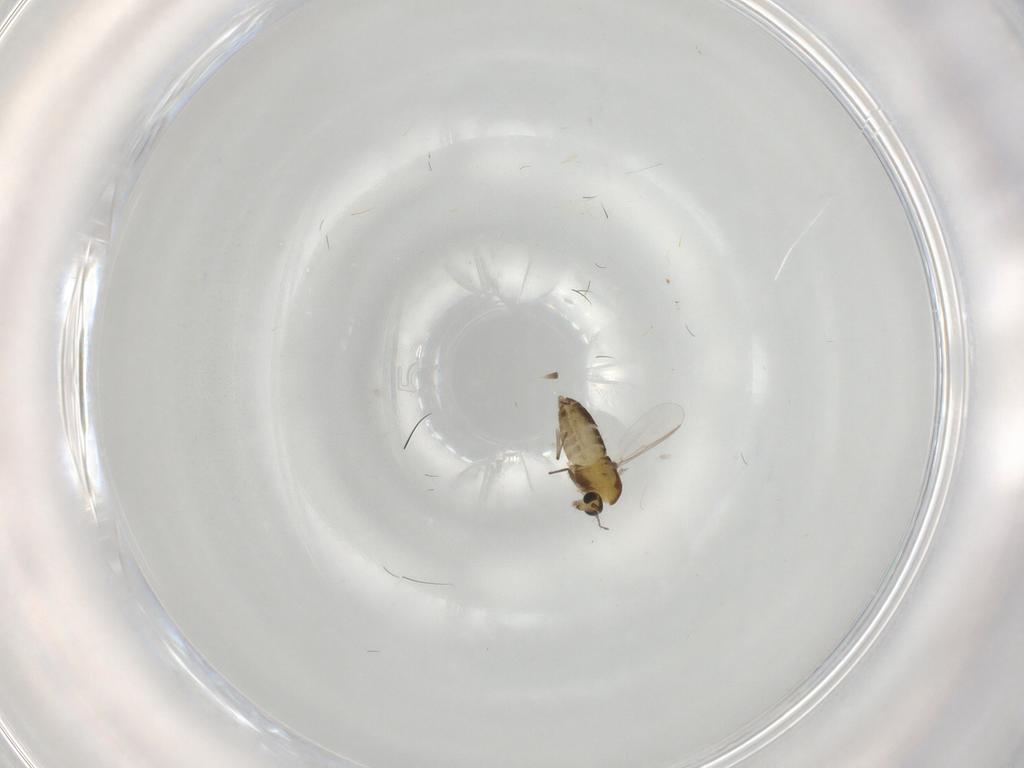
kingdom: Animalia
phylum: Arthropoda
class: Insecta
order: Diptera
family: Chironomidae
